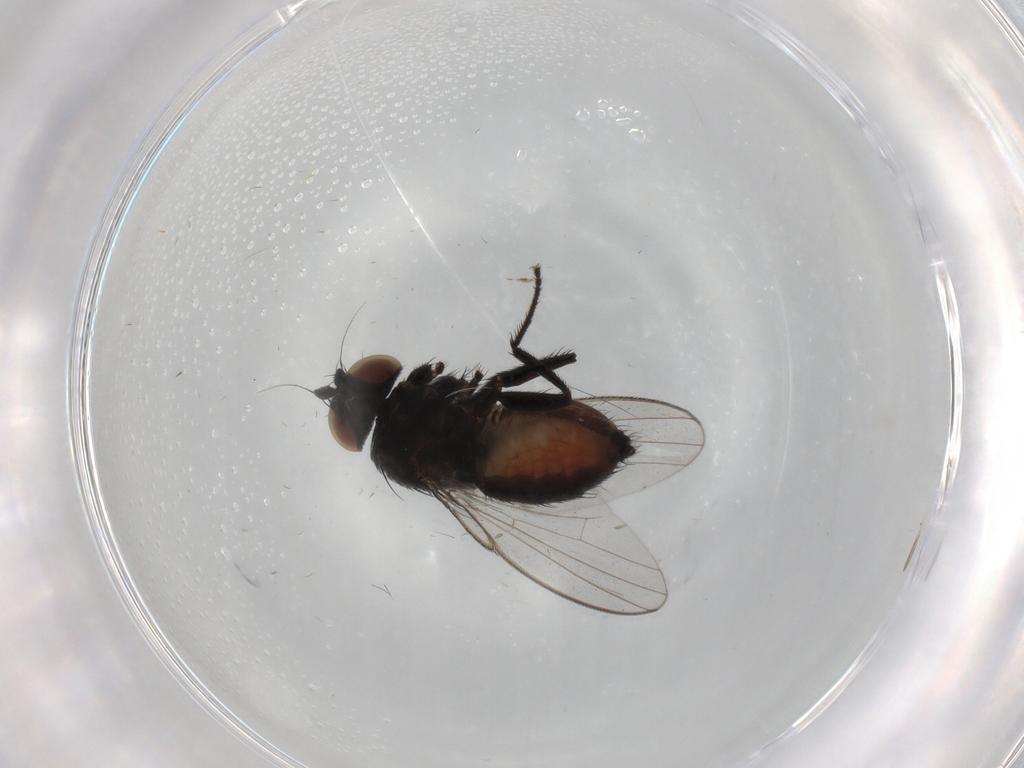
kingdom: Animalia
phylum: Arthropoda
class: Insecta
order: Diptera
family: Milichiidae
